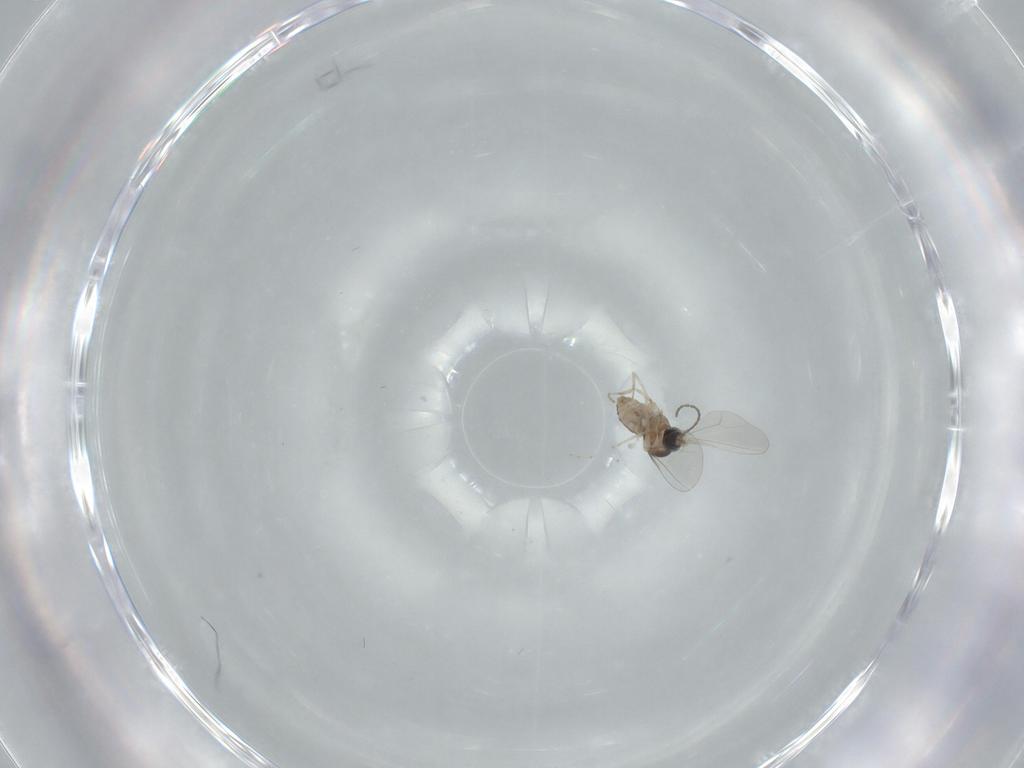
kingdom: Animalia
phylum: Arthropoda
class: Insecta
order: Diptera
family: Cecidomyiidae
